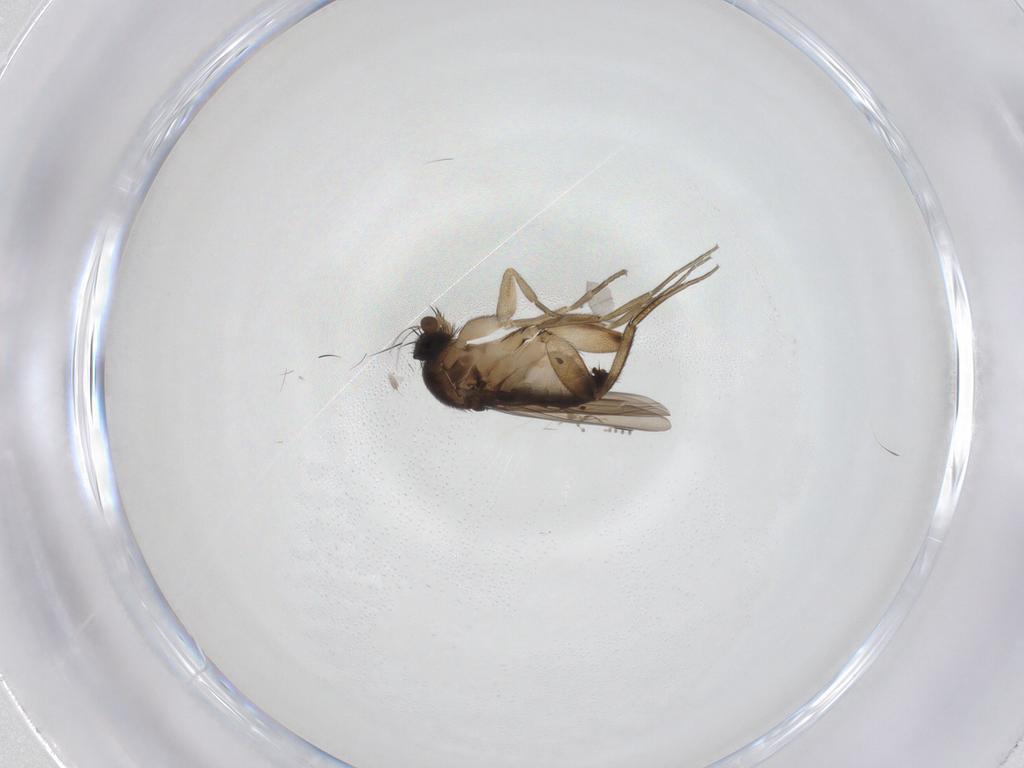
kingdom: Animalia
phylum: Arthropoda
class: Insecta
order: Diptera
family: Phoridae
